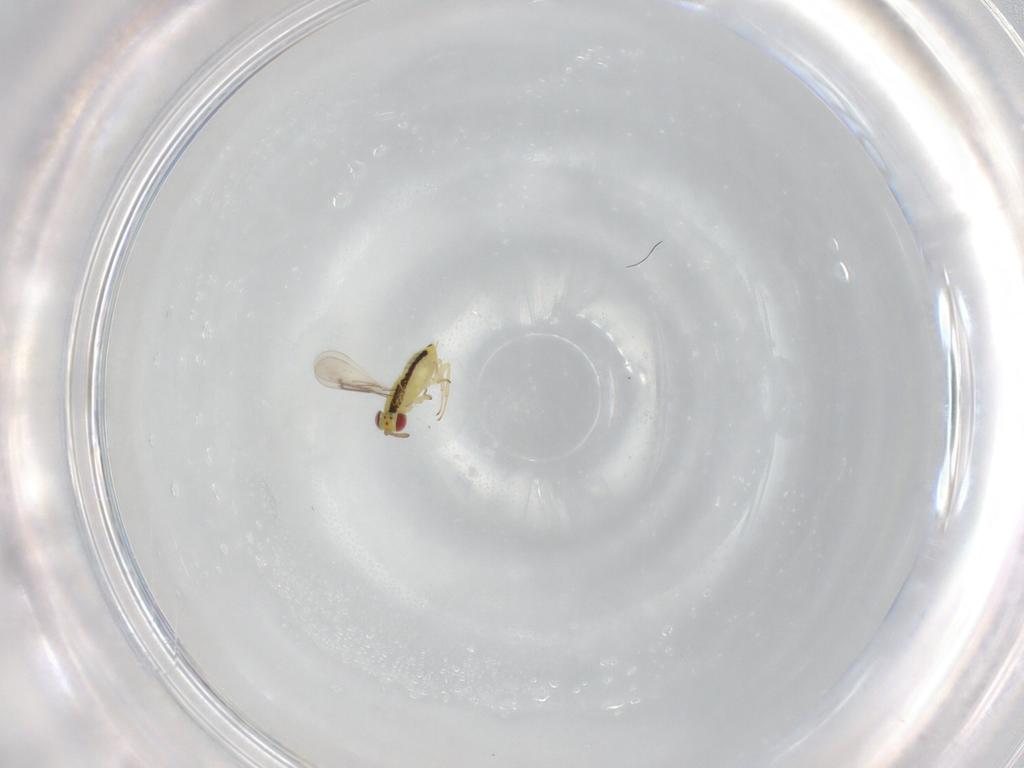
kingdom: Animalia
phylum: Arthropoda
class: Insecta
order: Hymenoptera
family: Aphelinidae
